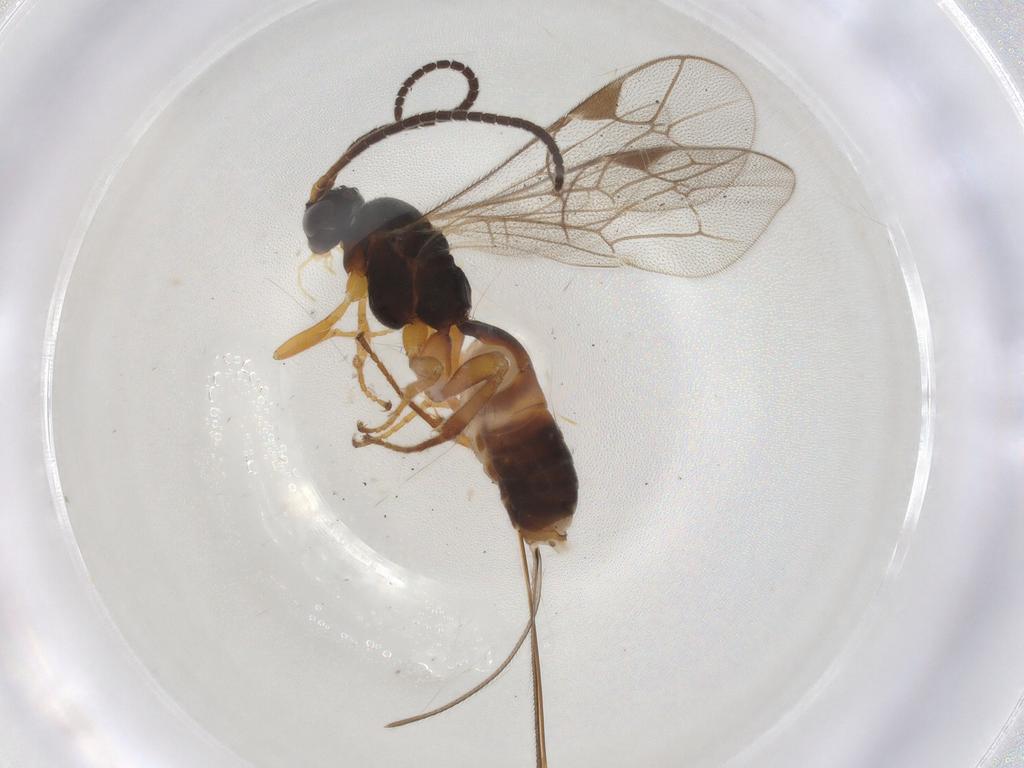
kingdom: Animalia
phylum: Arthropoda
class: Insecta
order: Hymenoptera
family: Ichneumonidae
